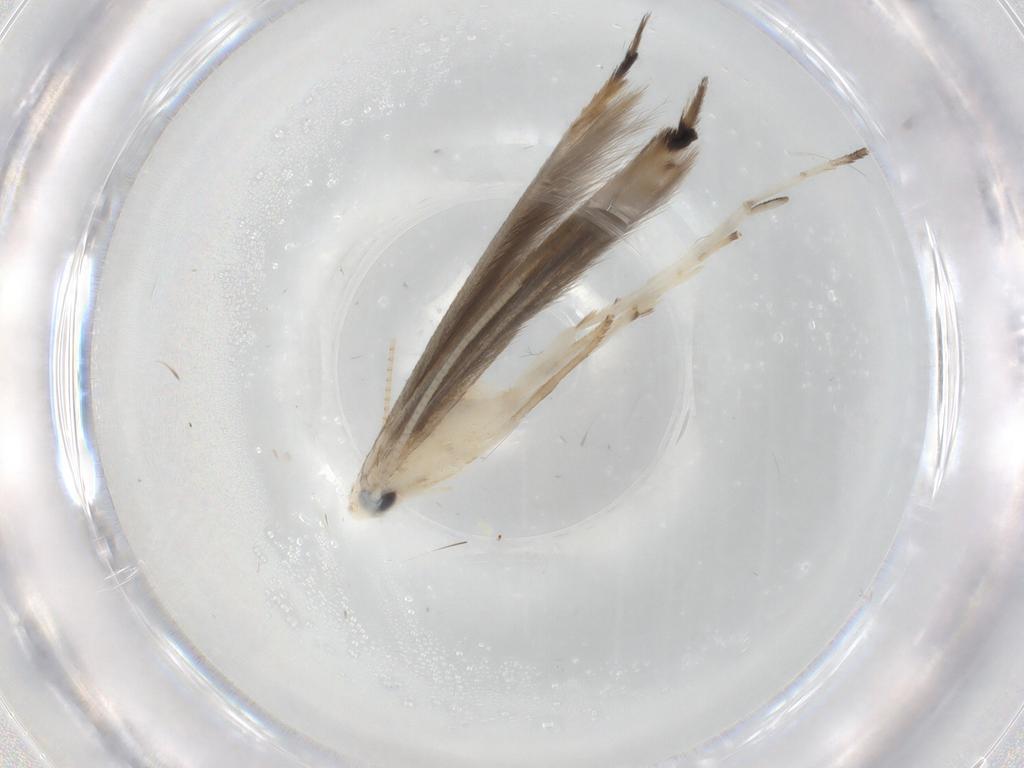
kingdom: Animalia
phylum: Arthropoda
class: Insecta
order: Lepidoptera
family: Crambidae
